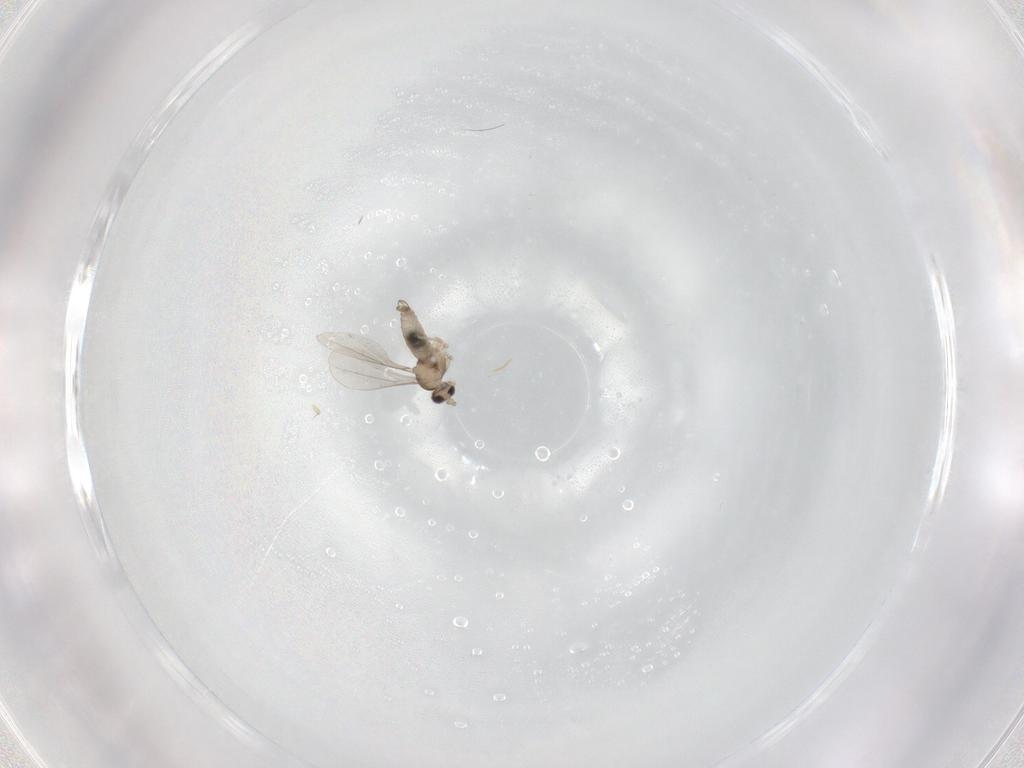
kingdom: Animalia
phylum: Arthropoda
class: Insecta
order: Diptera
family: Cecidomyiidae
